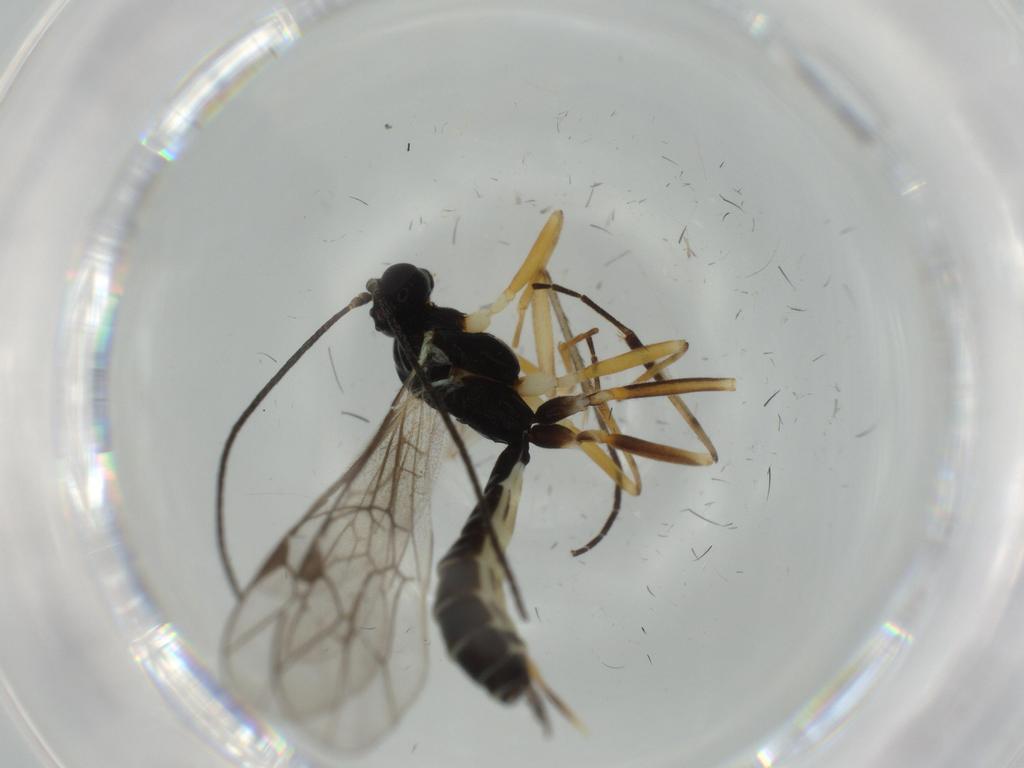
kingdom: Animalia
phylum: Arthropoda
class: Insecta
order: Hymenoptera
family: Ichneumonidae
